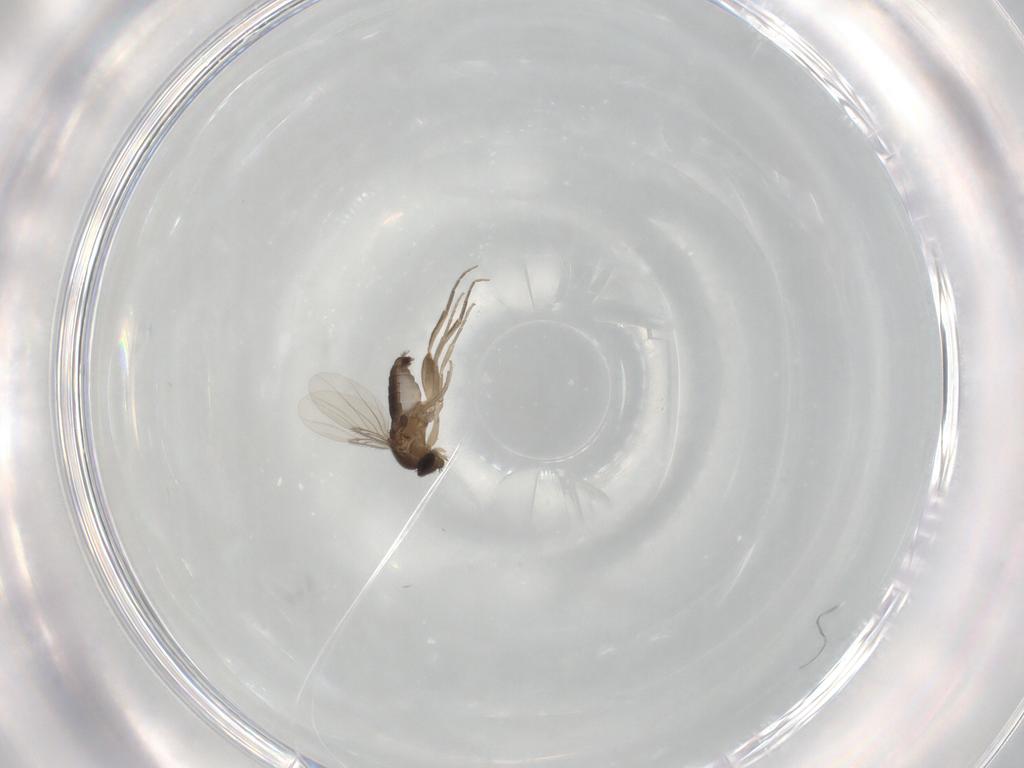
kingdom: Animalia
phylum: Arthropoda
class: Insecta
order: Diptera
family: Phoridae
